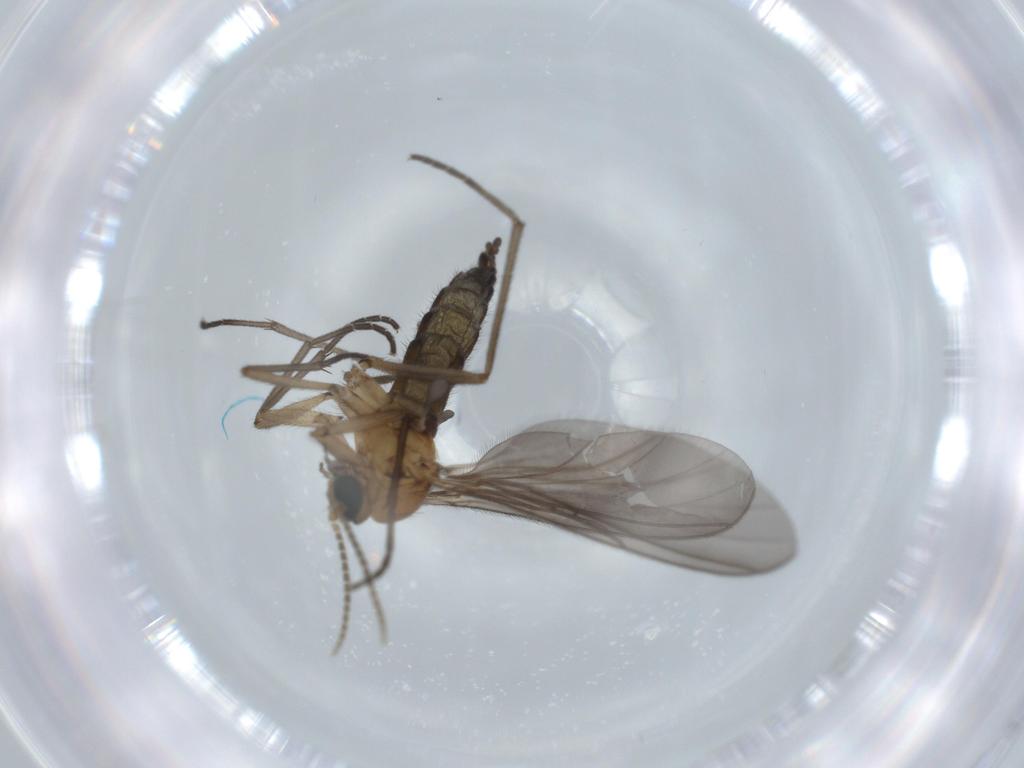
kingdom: Animalia
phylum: Arthropoda
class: Insecta
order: Diptera
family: Sciaridae
